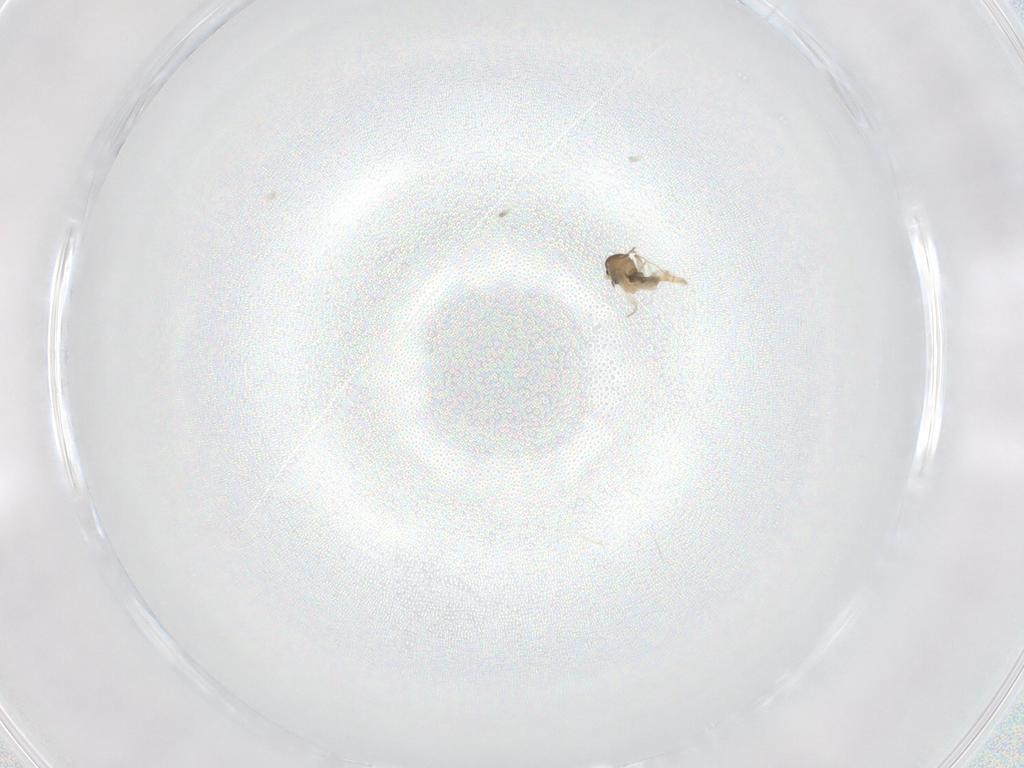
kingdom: Animalia
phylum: Arthropoda
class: Insecta
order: Diptera
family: Cecidomyiidae
